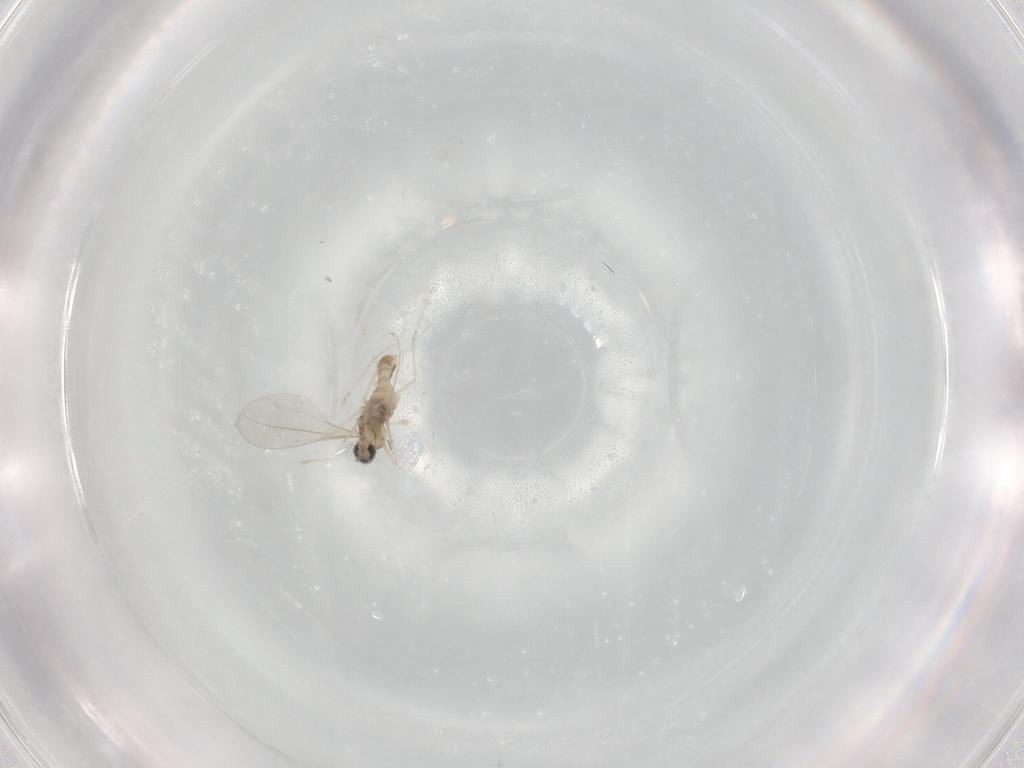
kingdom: Animalia
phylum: Arthropoda
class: Insecta
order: Diptera
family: Cecidomyiidae
